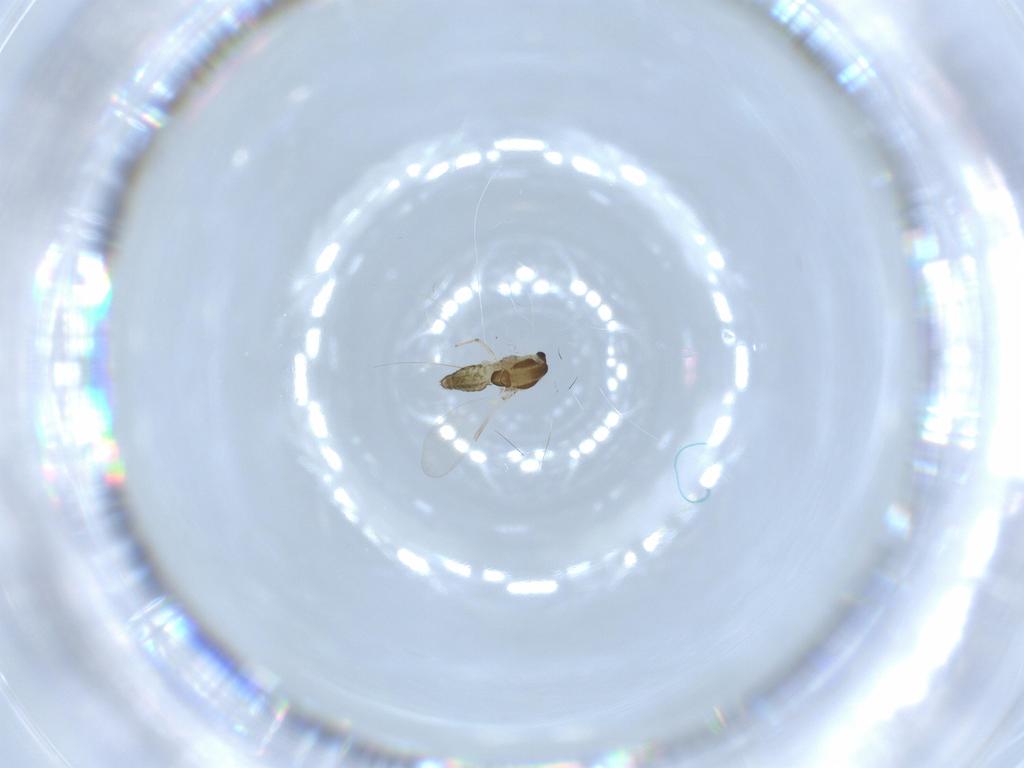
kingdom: Animalia
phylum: Arthropoda
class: Insecta
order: Diptera
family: Chironomidae
